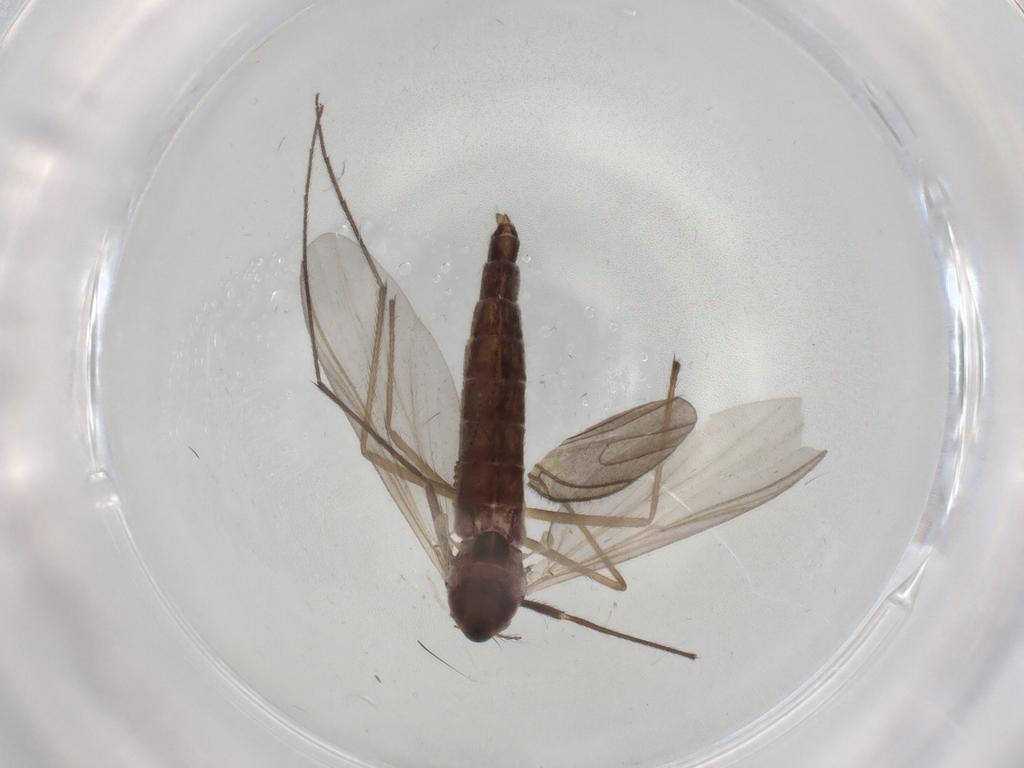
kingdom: Animalia
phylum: Arthropoda
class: Insecta
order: Diptera
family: Chironomidae
